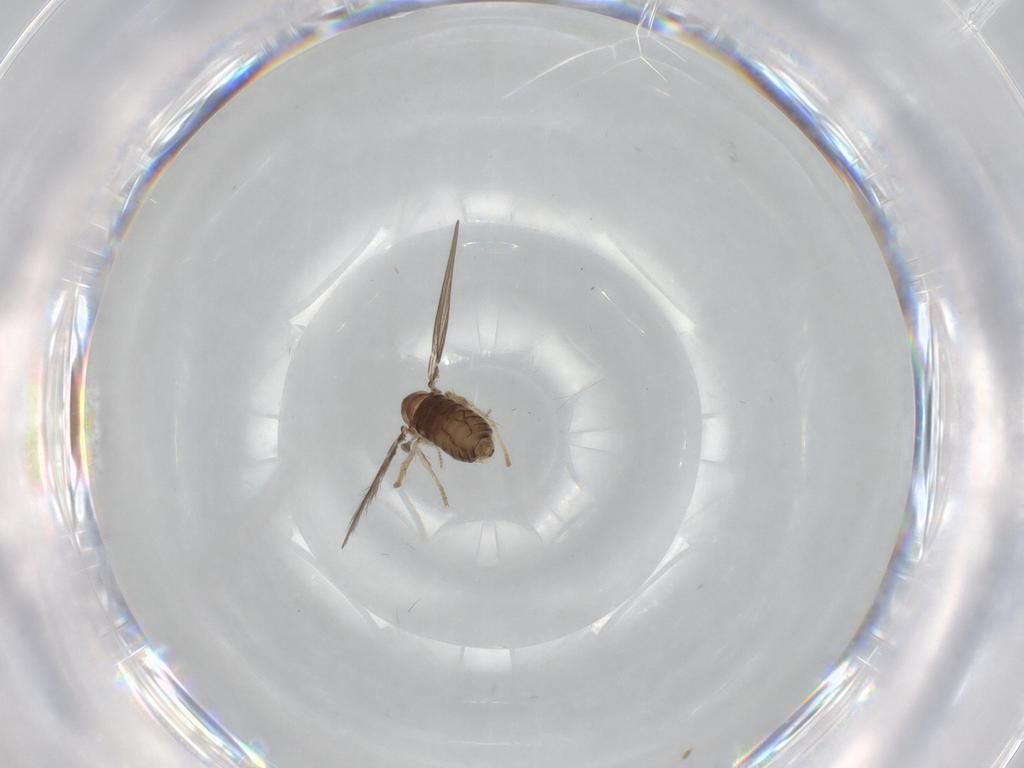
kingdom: Animalia
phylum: Arthropoda
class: Insecta
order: Diptera
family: Psychodidae
